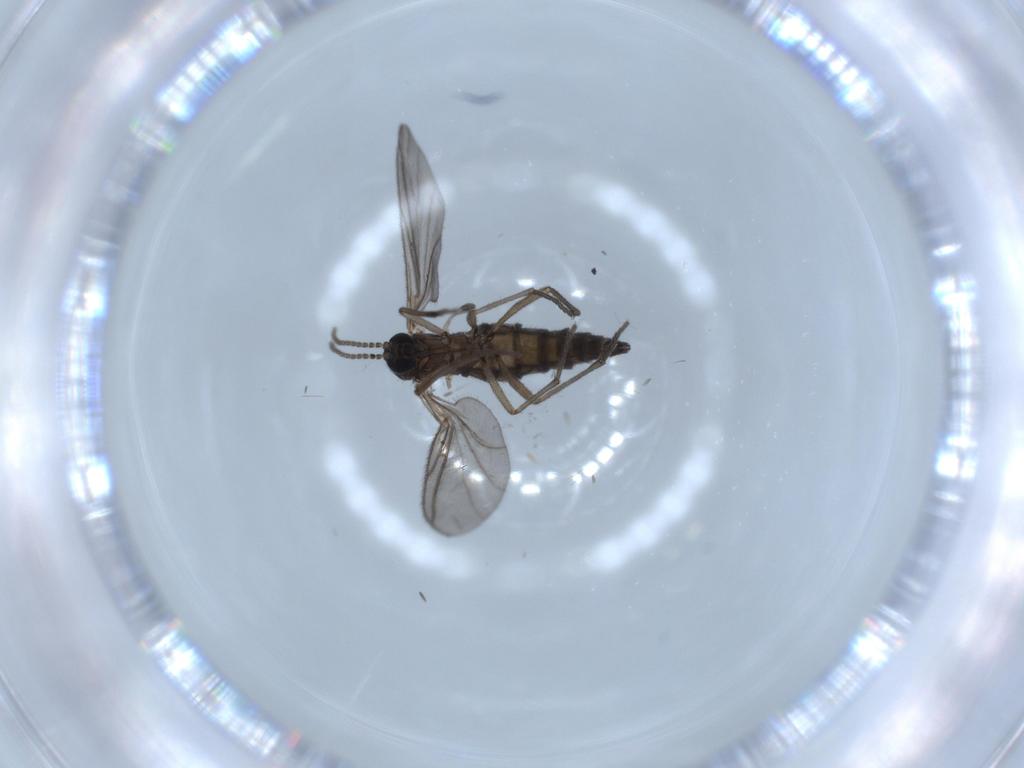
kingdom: Animalia
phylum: Arthropoda
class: Insecta
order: Diptera
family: Sciaridae
